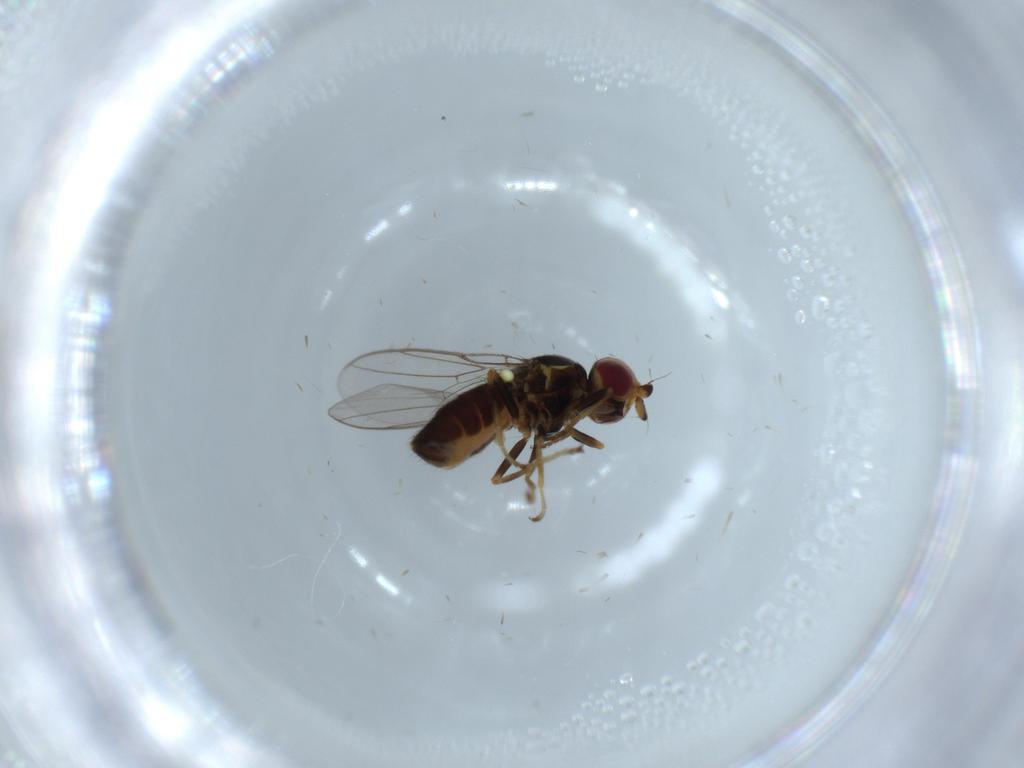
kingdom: Animalia
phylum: Arthropoda
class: Insecta
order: Diptera
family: Chloropidae
